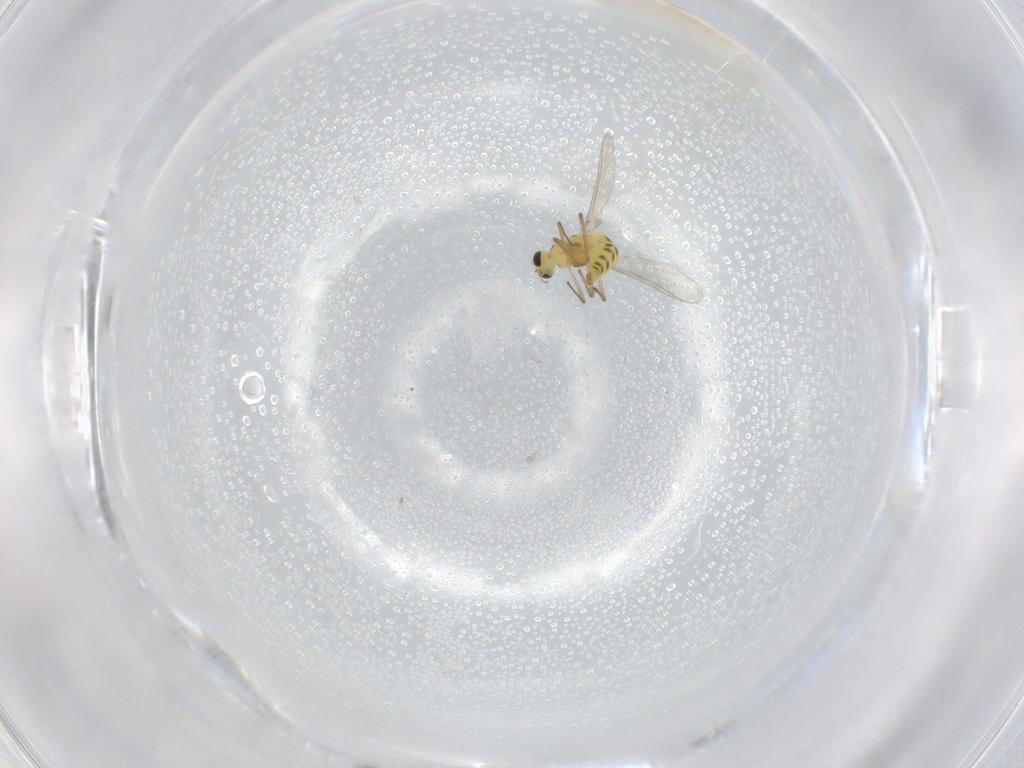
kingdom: Animalia
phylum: Arthropoda
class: Insecta
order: Diptera
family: Chironomidae
